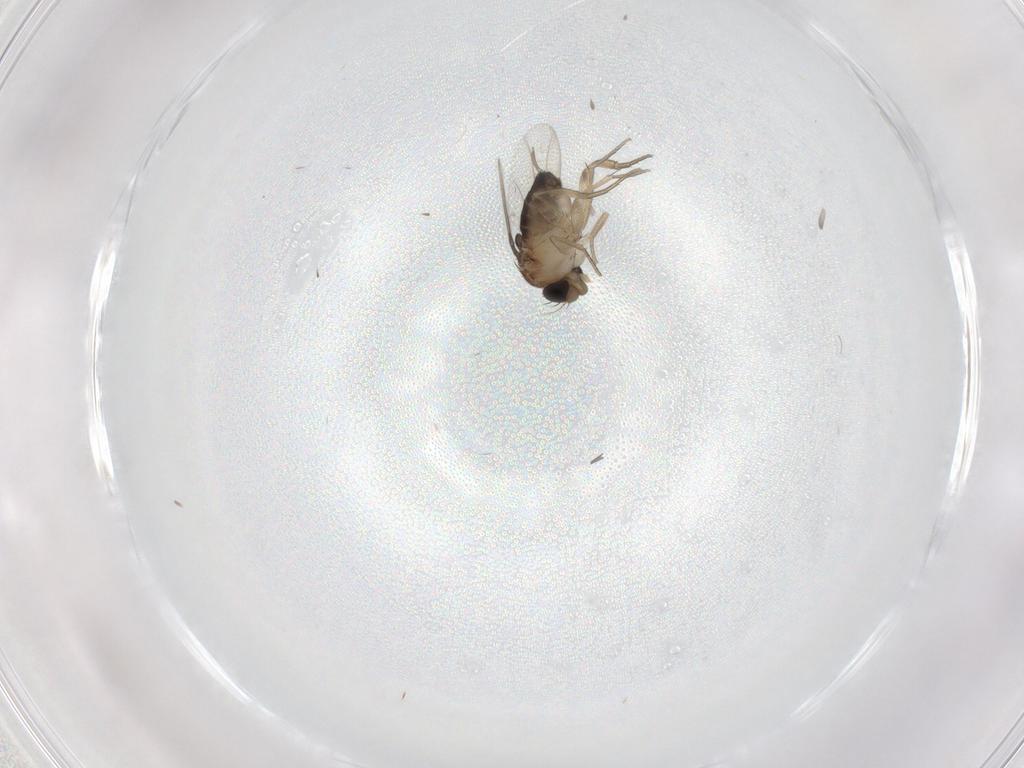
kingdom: Animalia
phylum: Arthropoda
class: Insecta
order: Diptera
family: Phoridae
